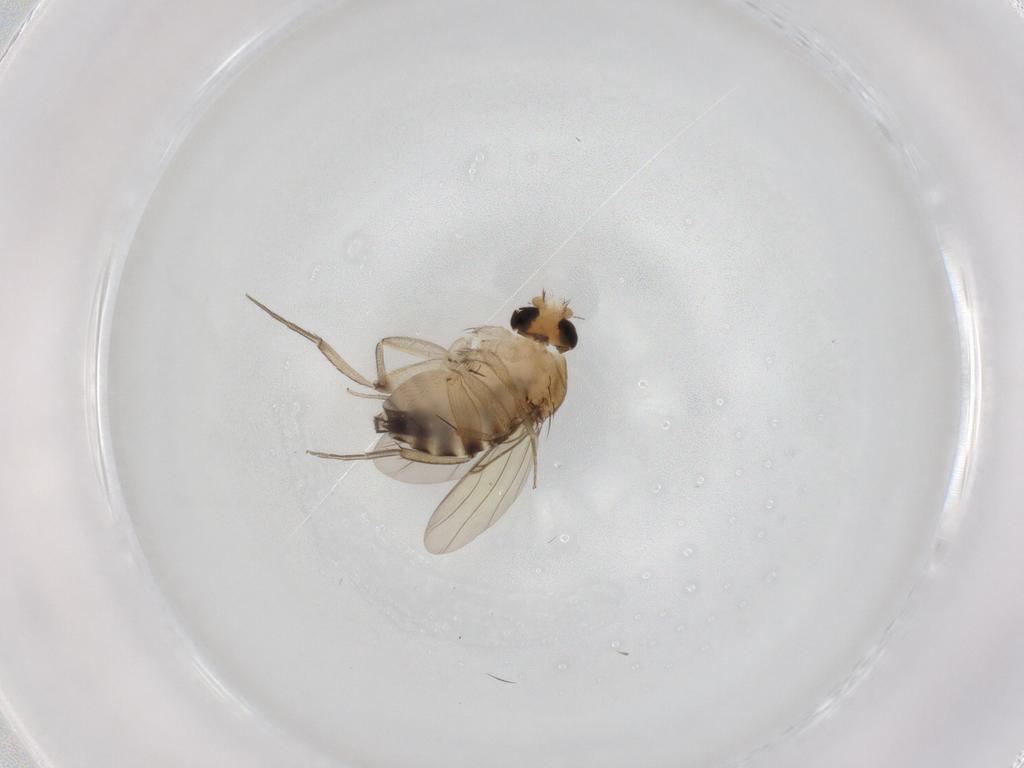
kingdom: Animalia
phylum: Arthropoda
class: Insecta
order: Diptera
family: Phoridae
